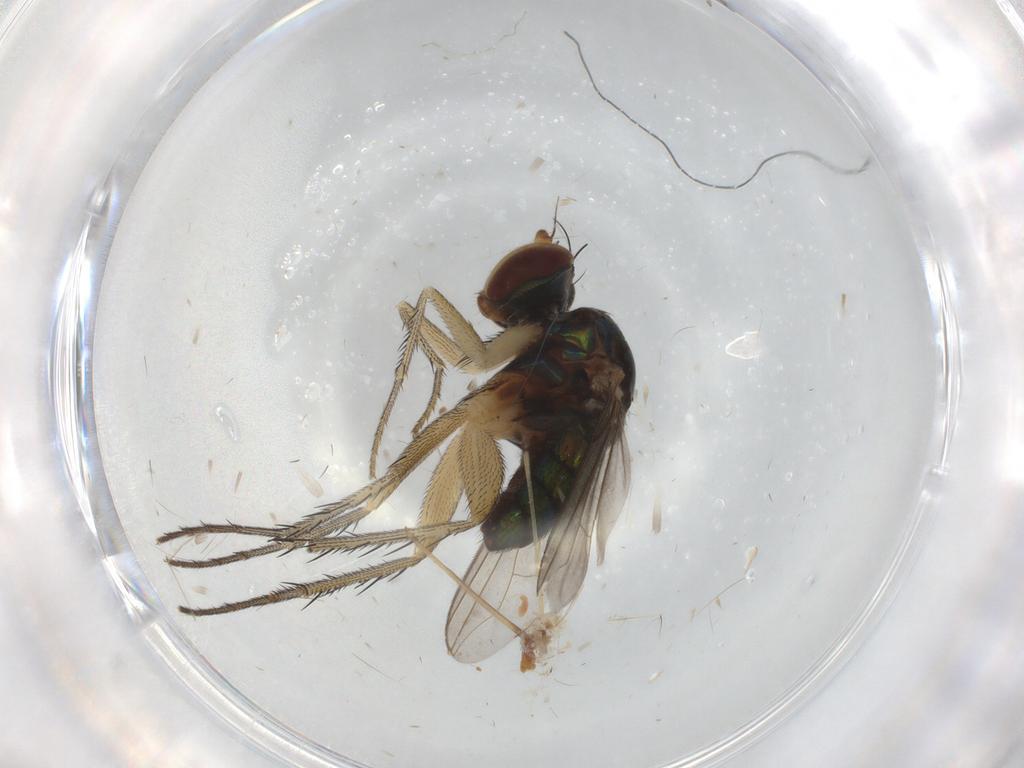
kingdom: Animalia
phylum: Arthropoda
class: Insecta
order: Diptera
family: Dolichopodidae
